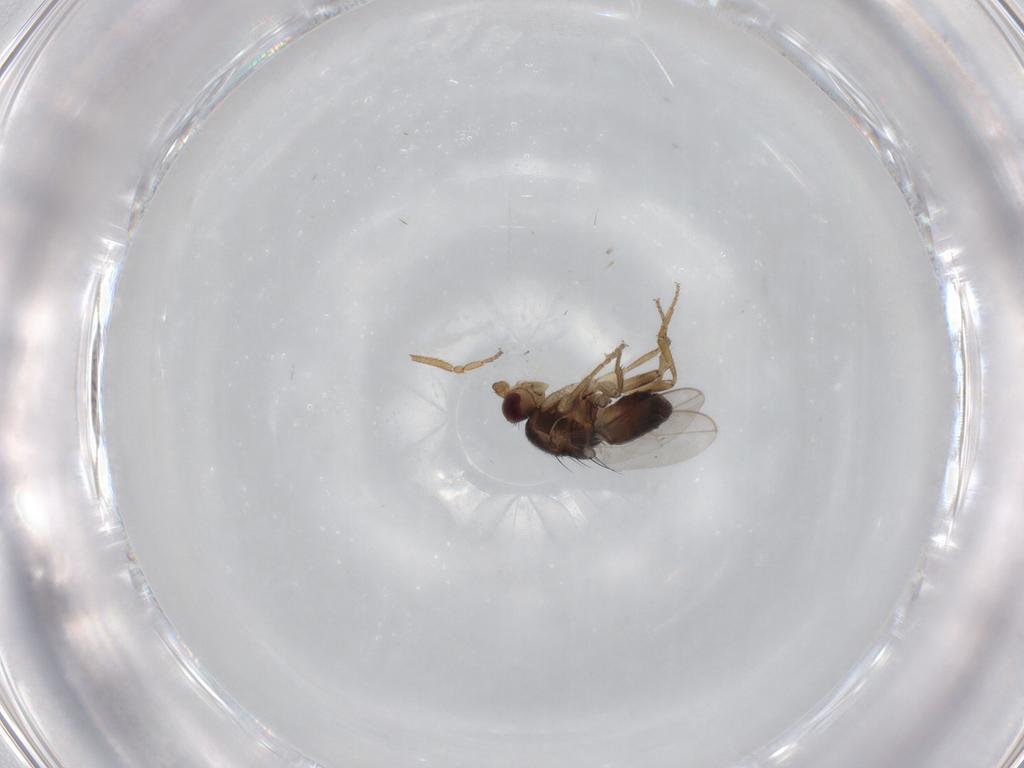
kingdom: Animalia
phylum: Arthropoda
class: Insecta
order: Diptera
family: Sphaeroceridae
